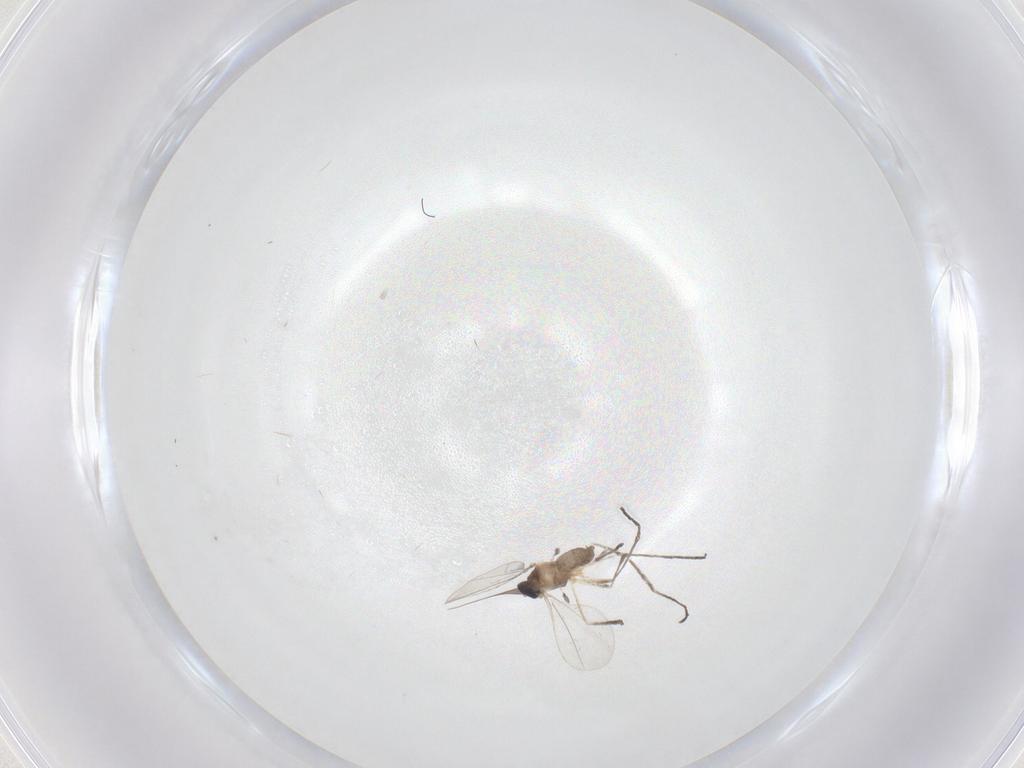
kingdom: Animalia
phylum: Arthropoda
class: Insecta
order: Diptera
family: Cecidomyiidae
